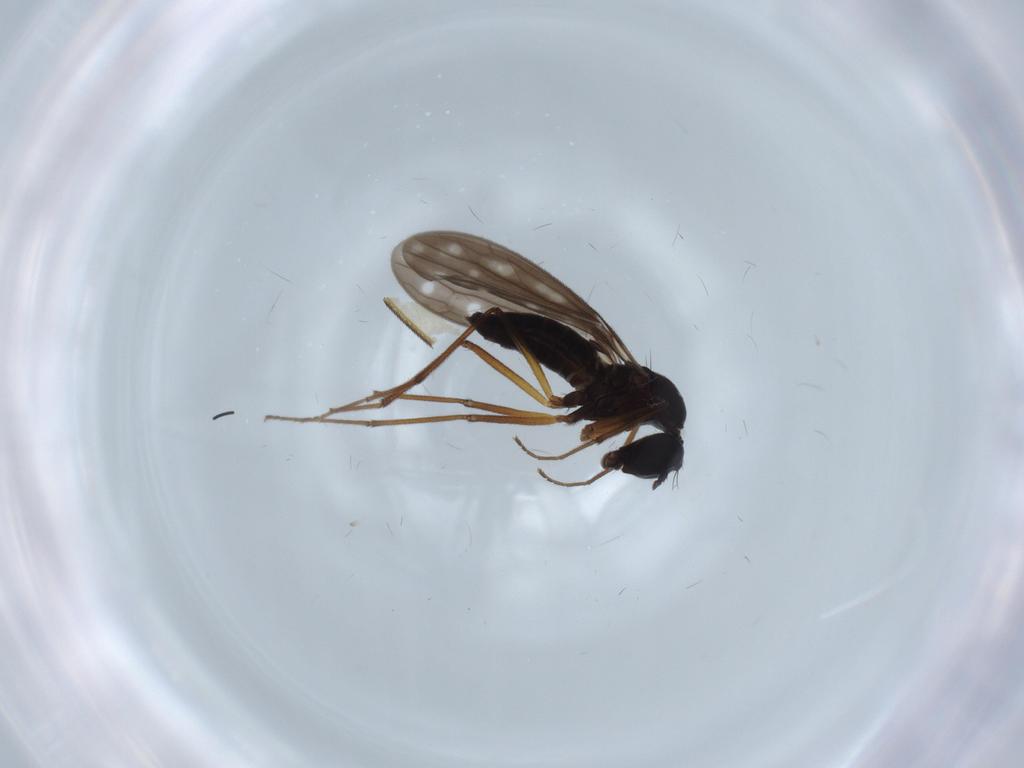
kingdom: Animalia
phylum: Arthropoda
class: Insecta
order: Diptera
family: Empididae
